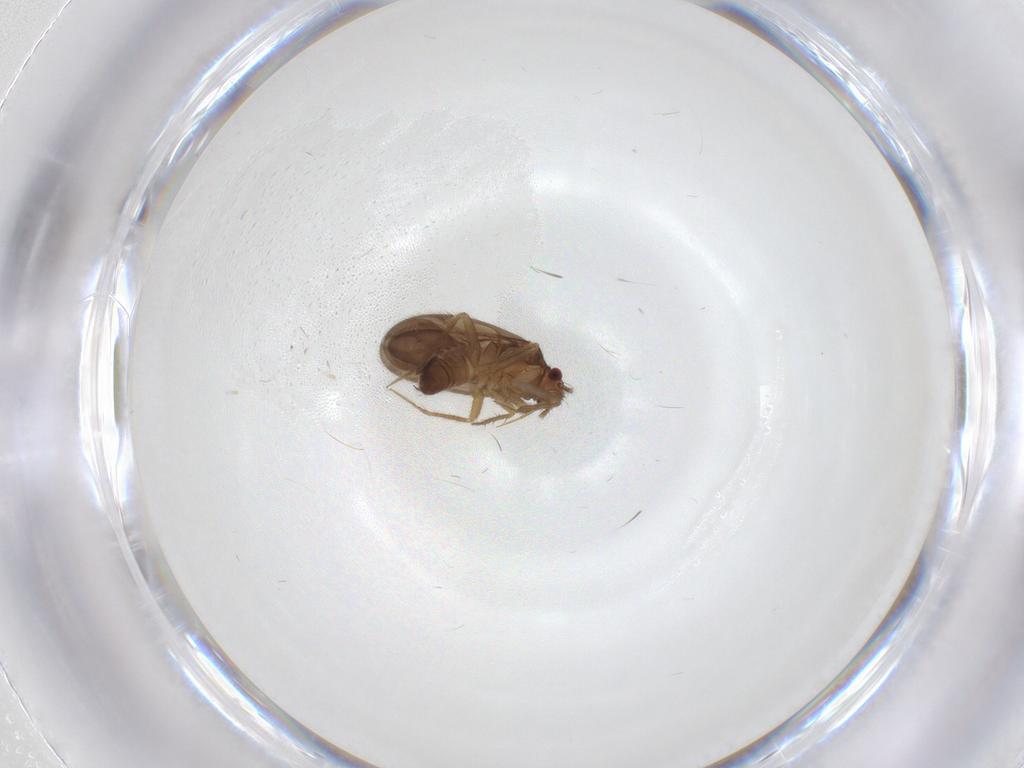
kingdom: Animalia
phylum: Arthropoda
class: Insecta
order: Hemiptera
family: Ceratocombidae
